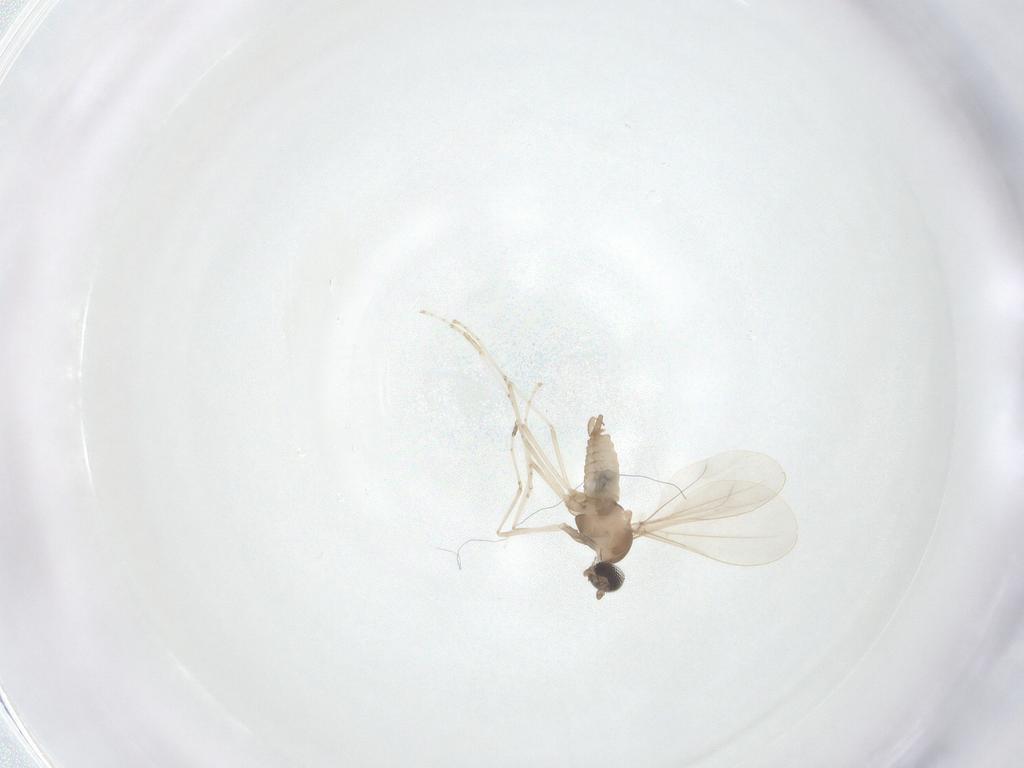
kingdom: Animalia
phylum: Arthropoda
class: Insecta
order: Diptera
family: Cecidomyiidae
